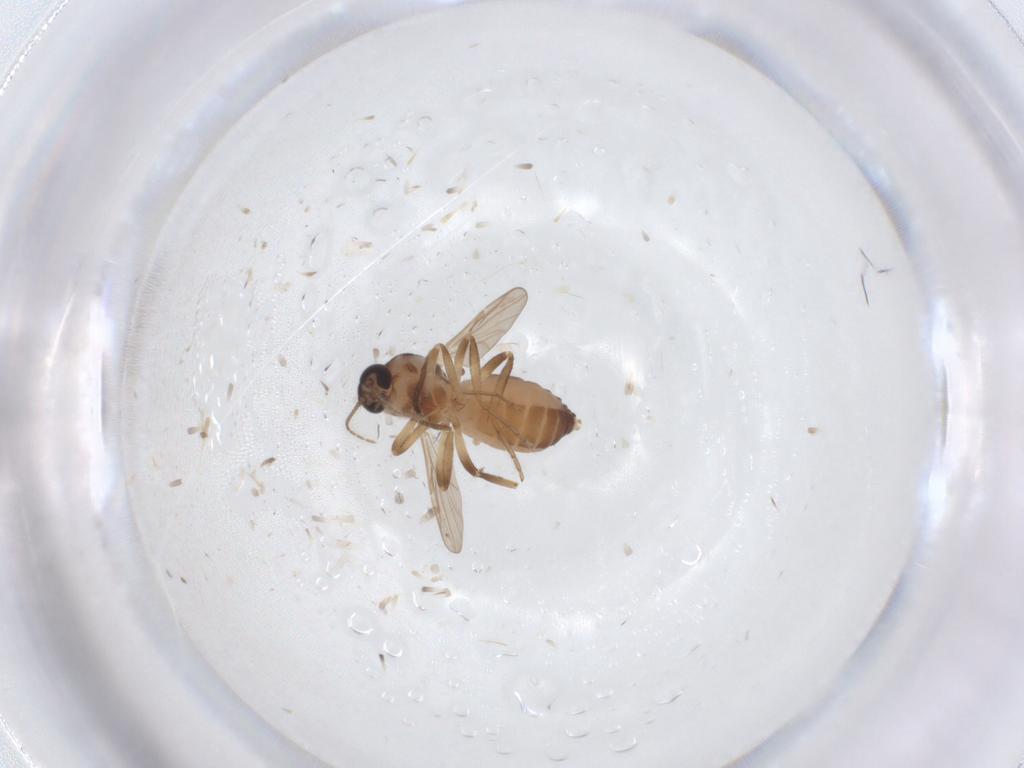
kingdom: Animalia
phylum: Arthropoda
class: Insecta
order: Diptera
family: Ceratopogonidae
